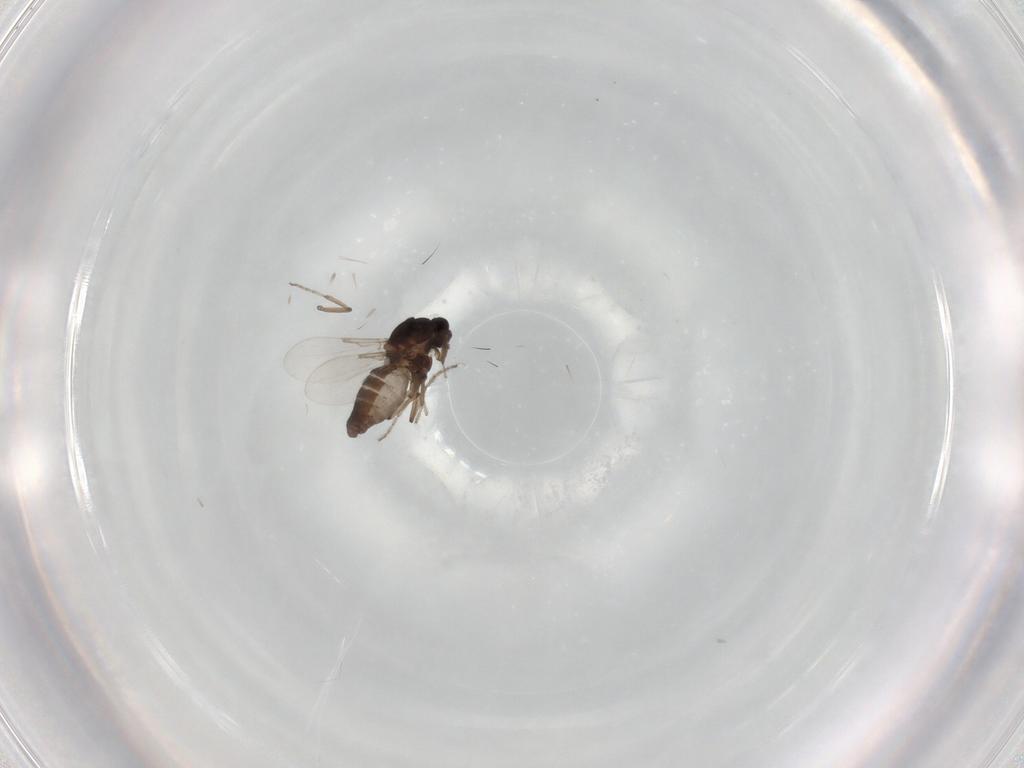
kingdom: Animalia
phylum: Arthropoda
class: Insecta
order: Diptera
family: Ceratopogonidae
